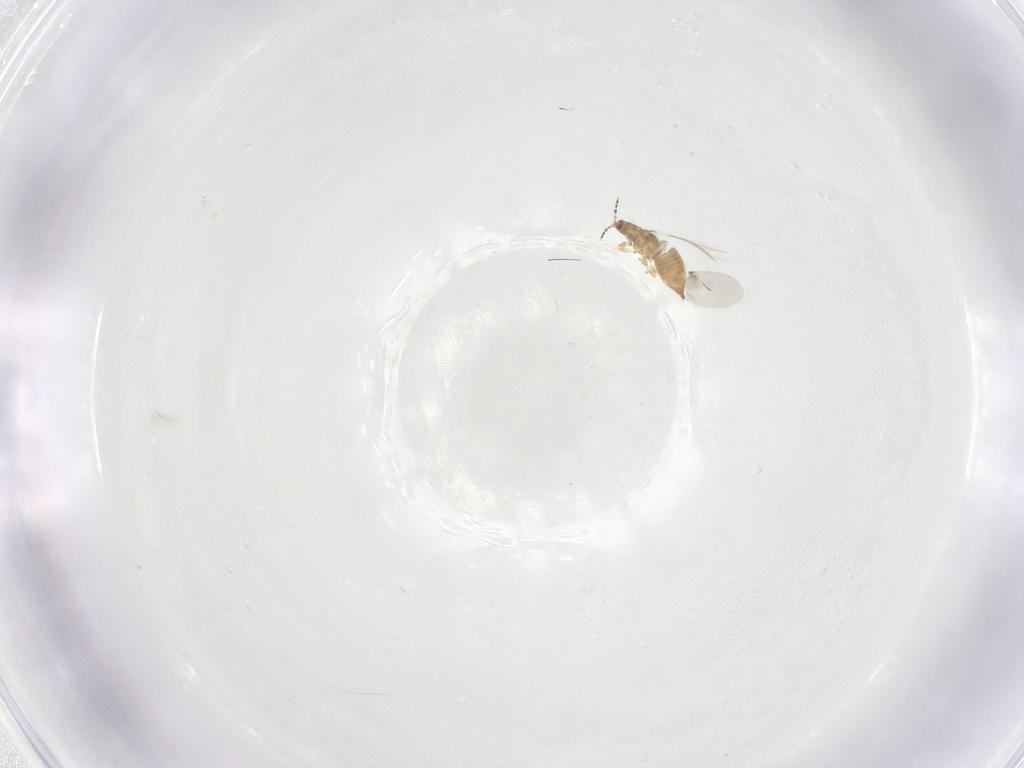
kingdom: Animalia
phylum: Arthropoda
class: Insecta
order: Thysanoptera
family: Thripidae
